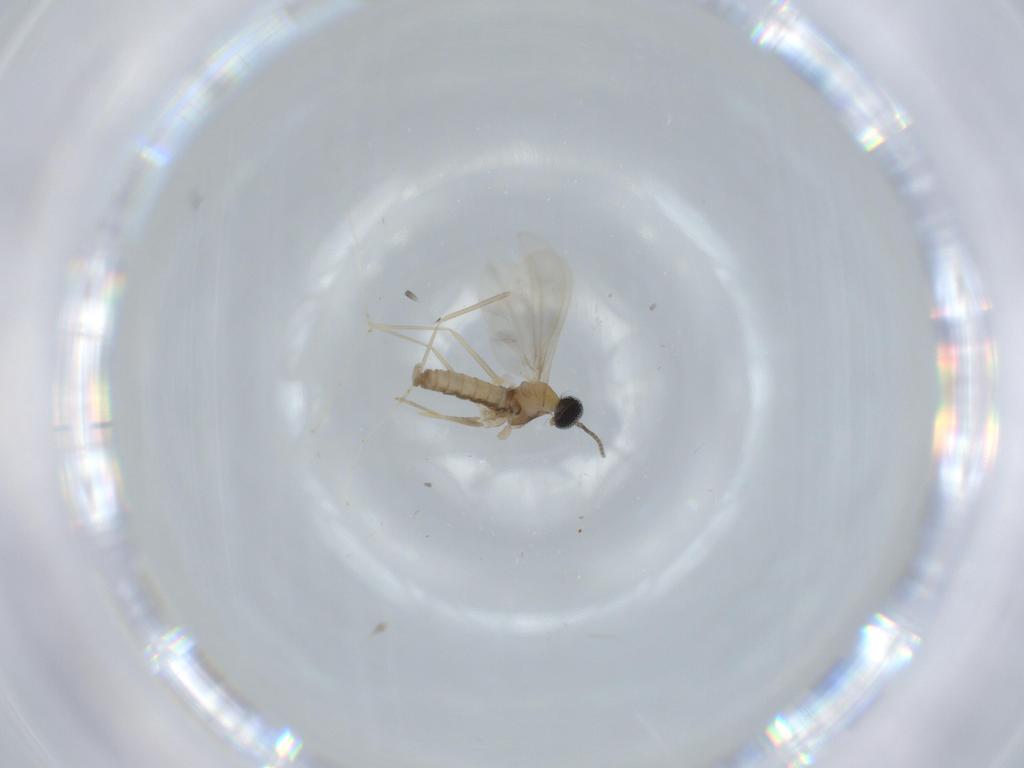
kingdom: Animalia
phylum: Arthropoda
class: Insecta
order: Diptera
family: Cecidomyiidae
